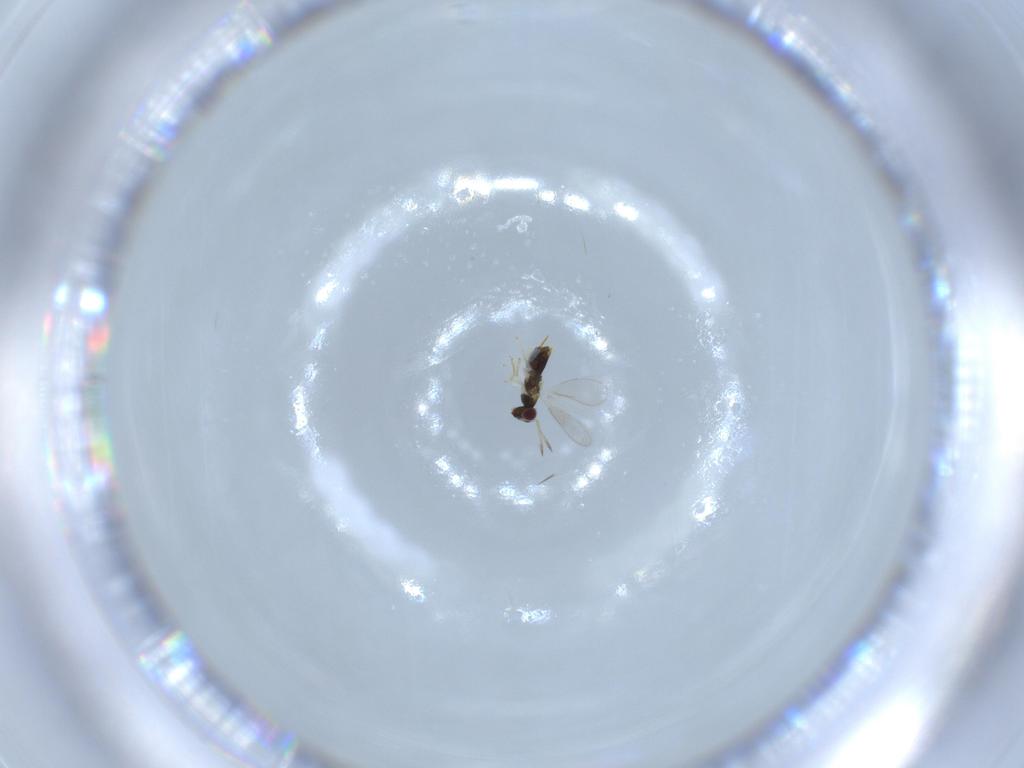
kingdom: Animalia
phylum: Arthropoda
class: Insecta
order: Hymenoptera
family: Aphelinidae
